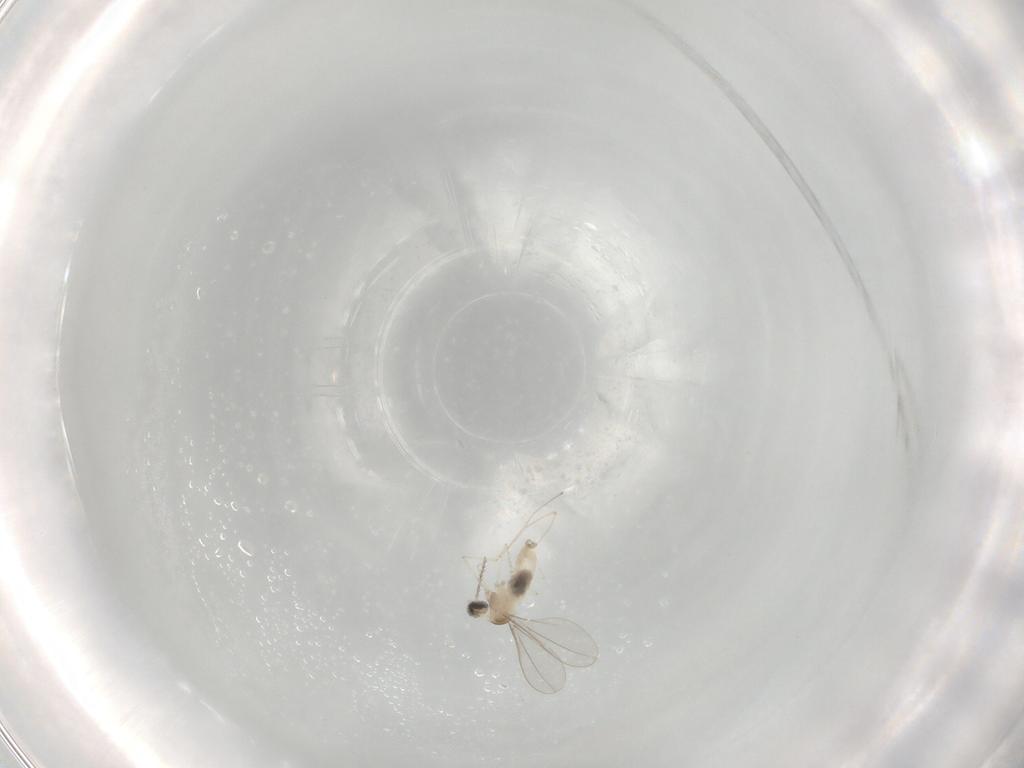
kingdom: Animalia
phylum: Arthropoda
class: Insecta
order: Diptera
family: Cecidomyiidae
